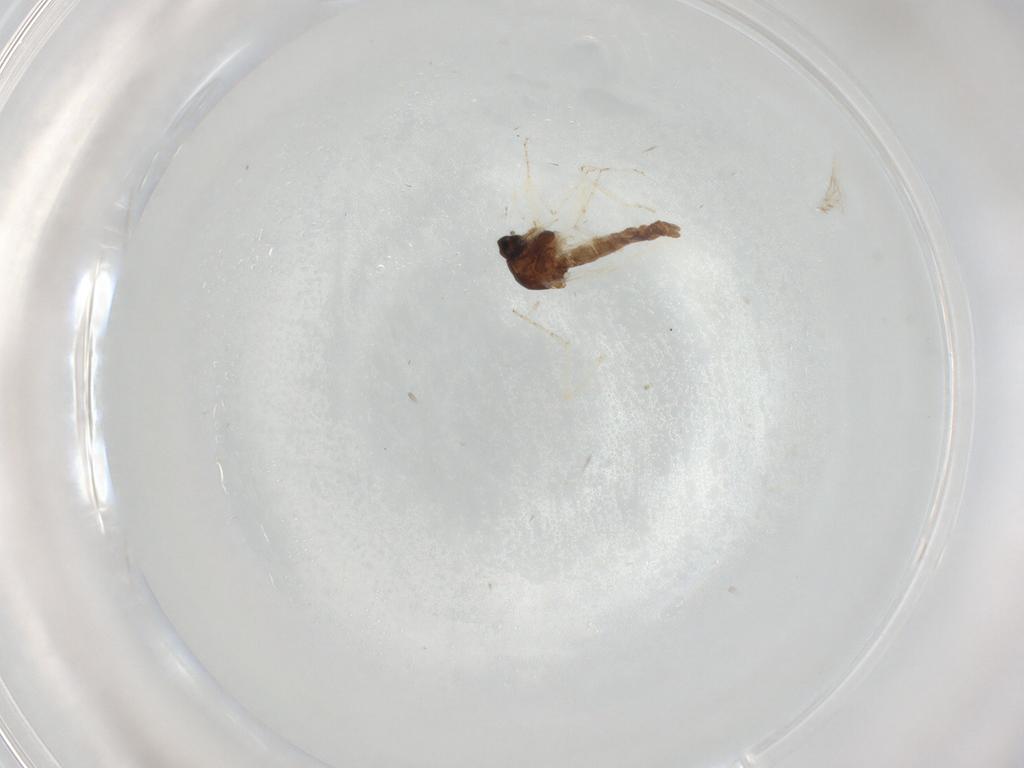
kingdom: Animalia
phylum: Arthropoda
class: Insecta
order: Diptera
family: Ceratopogonidae
